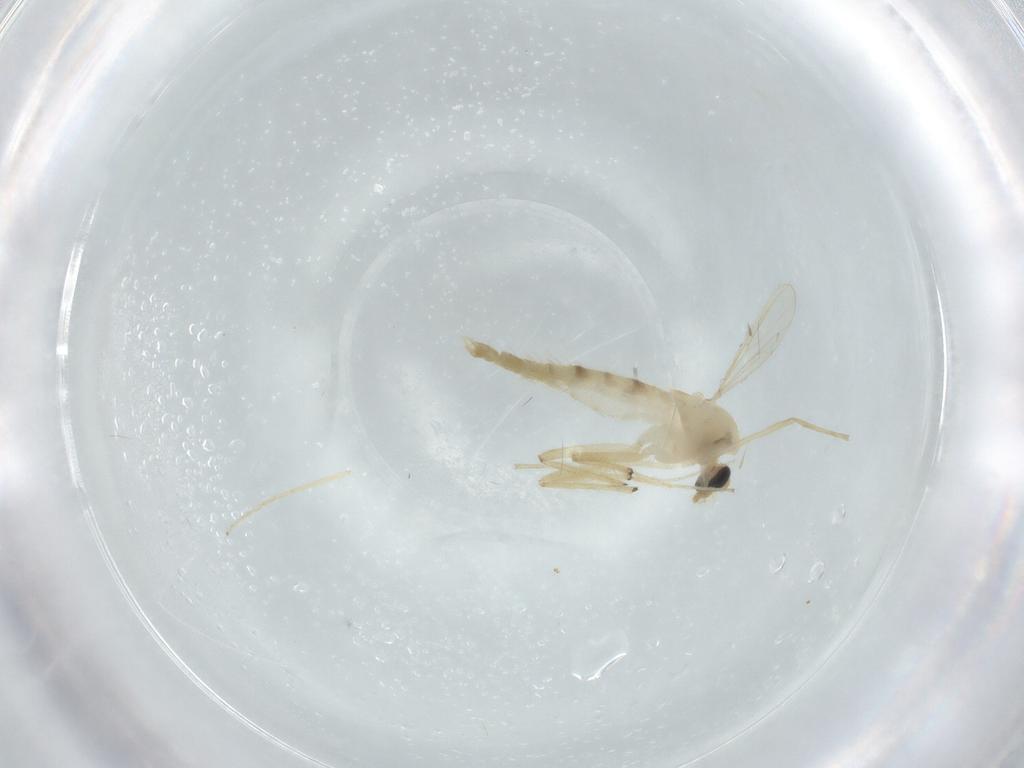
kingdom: Animalia
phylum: Arthropoda
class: Insecta
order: Diptera
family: Chironomidae
